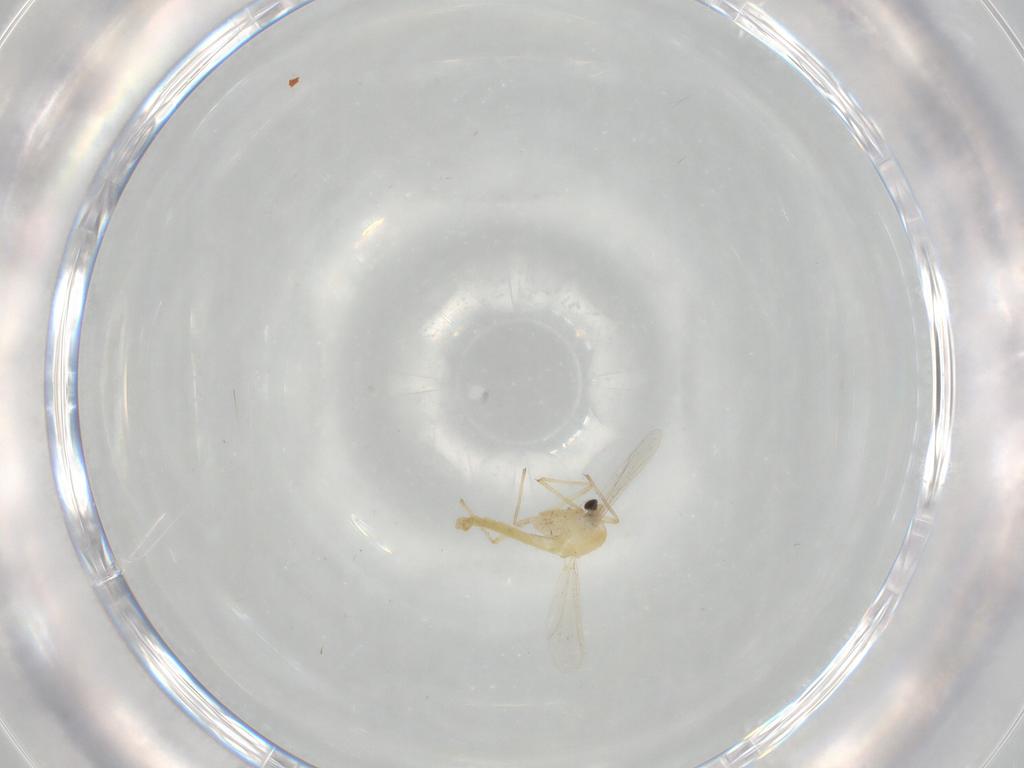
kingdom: Animalia
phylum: Arthropoda
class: Insecta
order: Diptera
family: Chironomidae
